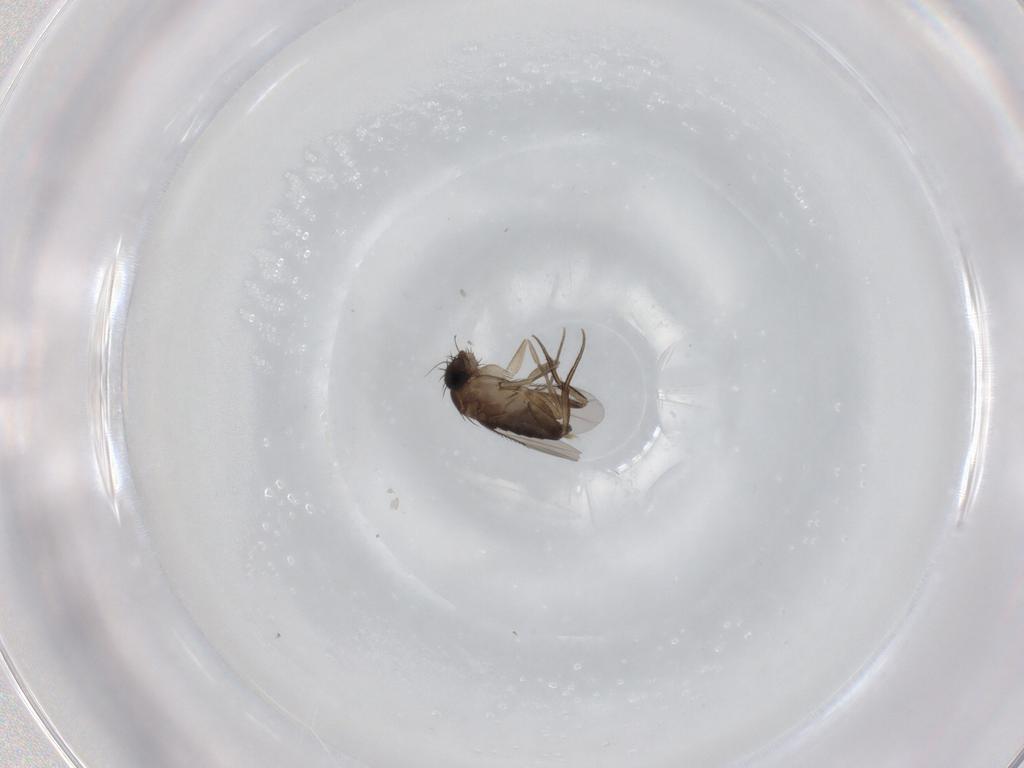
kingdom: Animalia
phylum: Arthropoda
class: Insecta
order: Diptera
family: Phoridae
